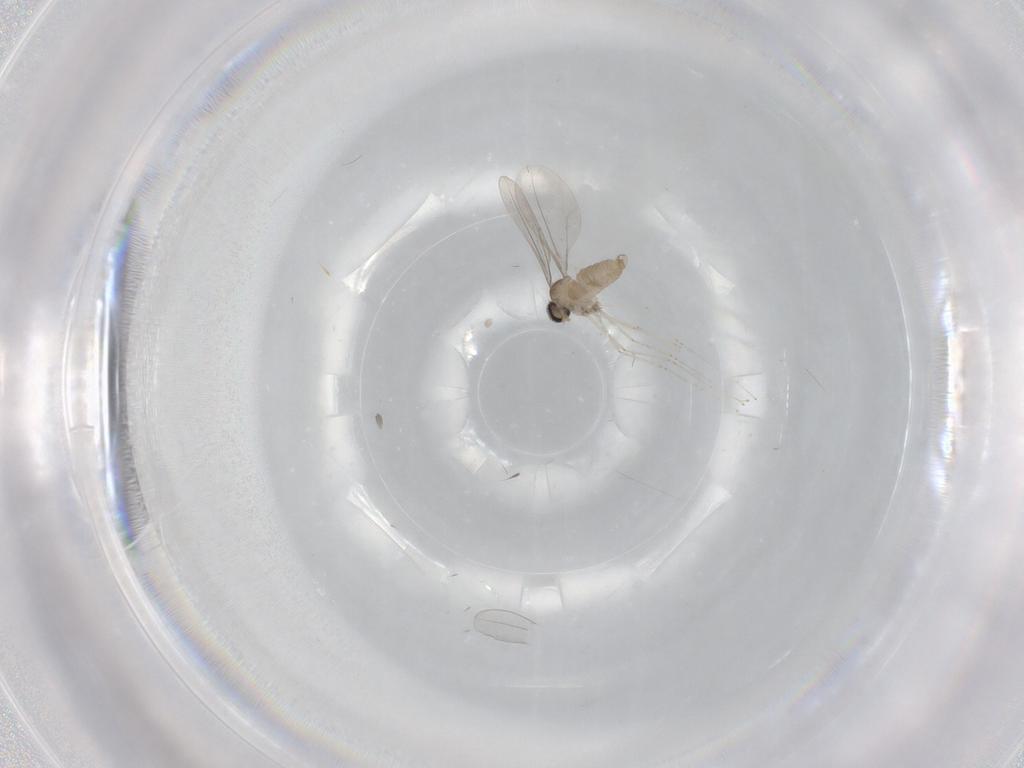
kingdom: Animalia
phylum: Arthropoda
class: Insecta
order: Diptera
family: Cecidomyiidae
